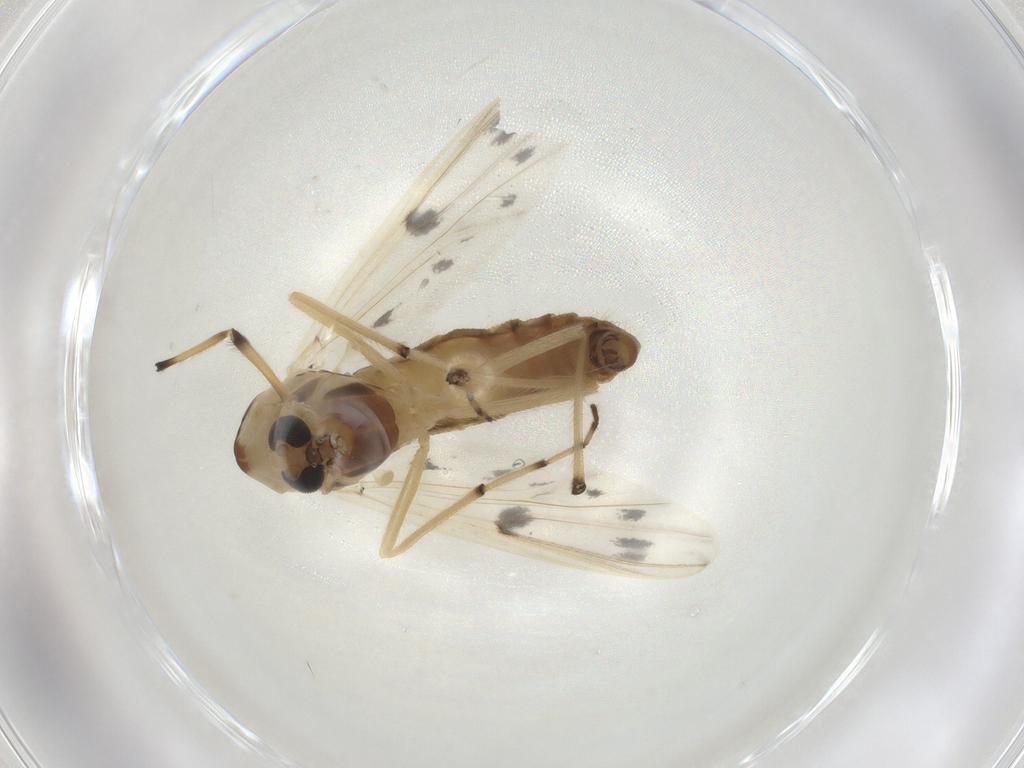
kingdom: Animalia
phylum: Arthropoda
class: Insecta
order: Diptera
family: Chironomidae
